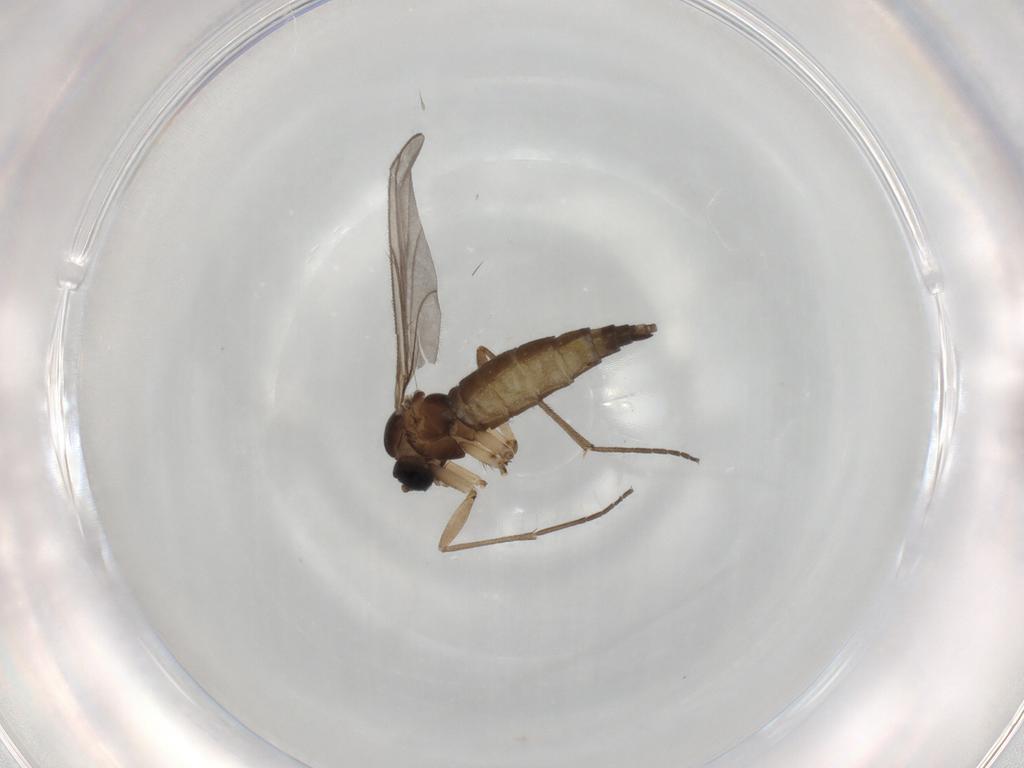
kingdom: Animalia
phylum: Arthropoda
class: Insecta
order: Diptera
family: Sciaridae
